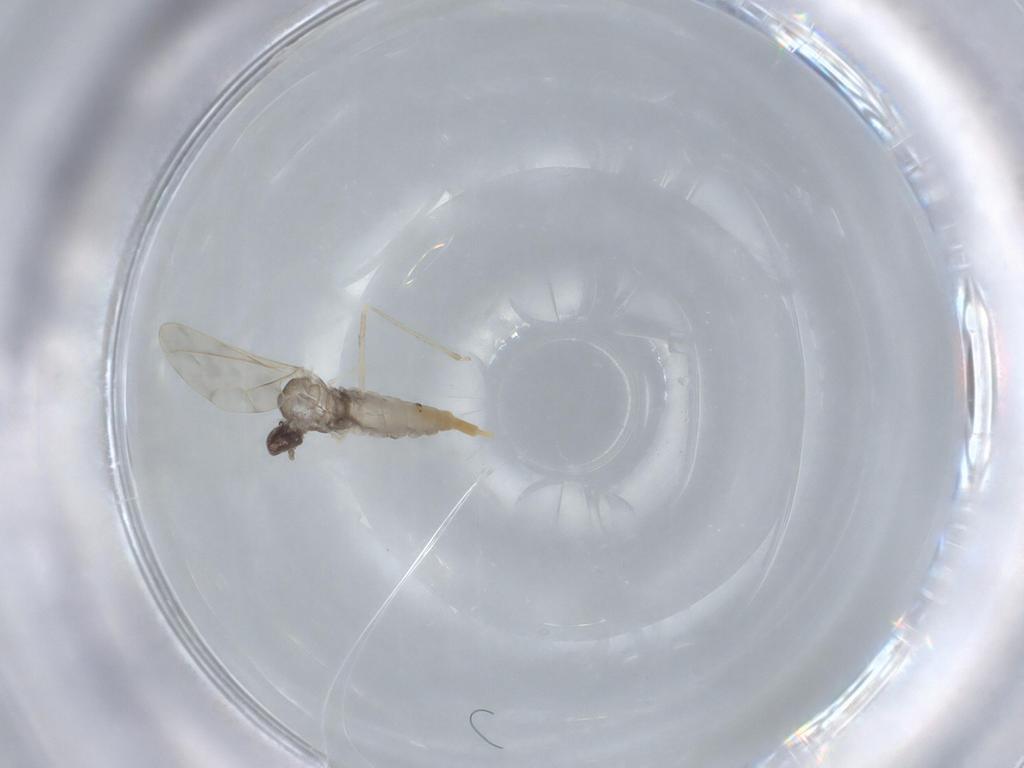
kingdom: Animalia
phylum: Arthropoda
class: Insecta
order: Diptera
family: Cecidomyiidae
